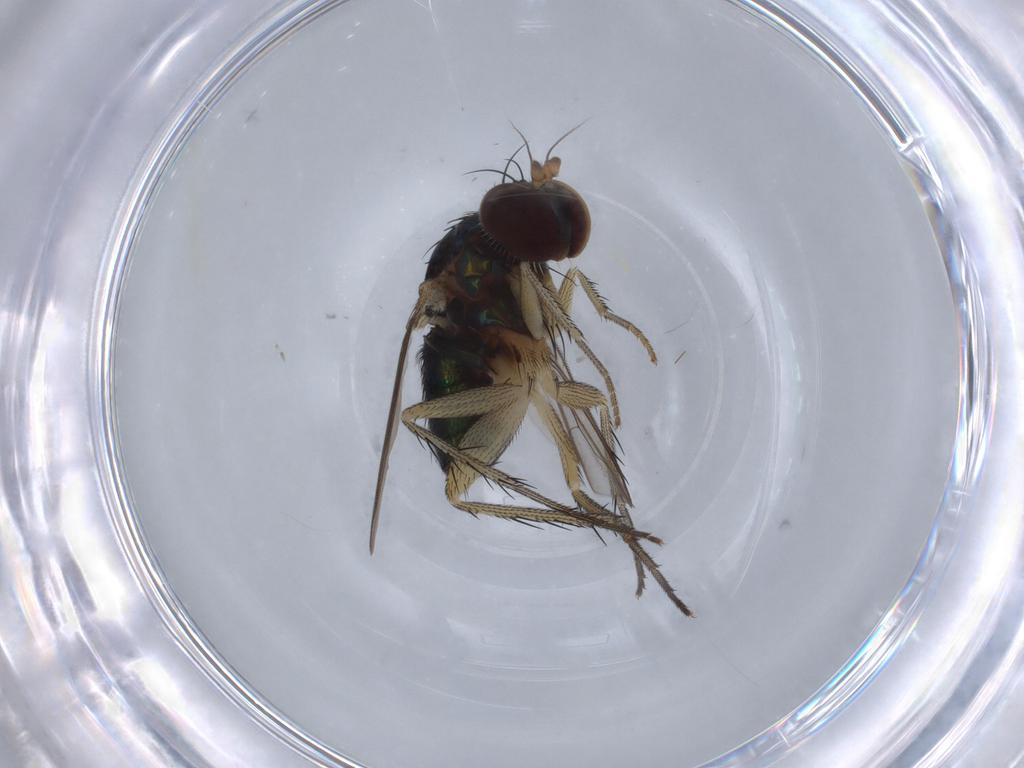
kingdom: Animalia
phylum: Arthropoda
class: Insecta
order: Diptera
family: Dolichopodidae
